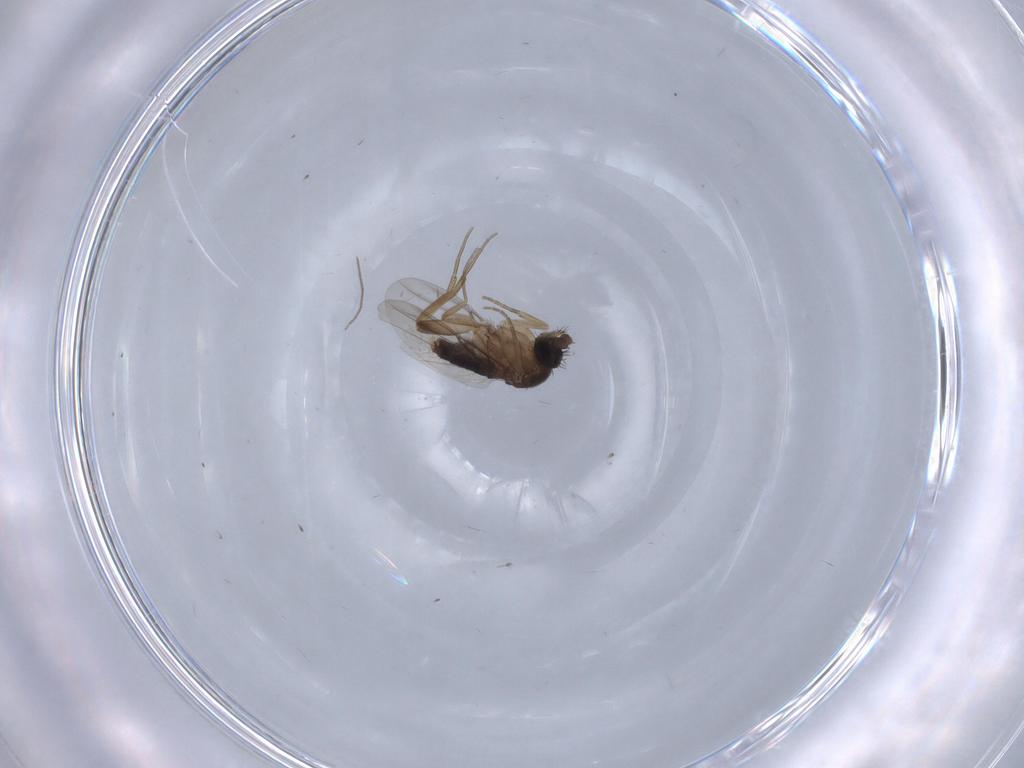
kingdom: Animalia
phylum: Arthropoda
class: Insecta
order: Diptera
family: Phoridae
